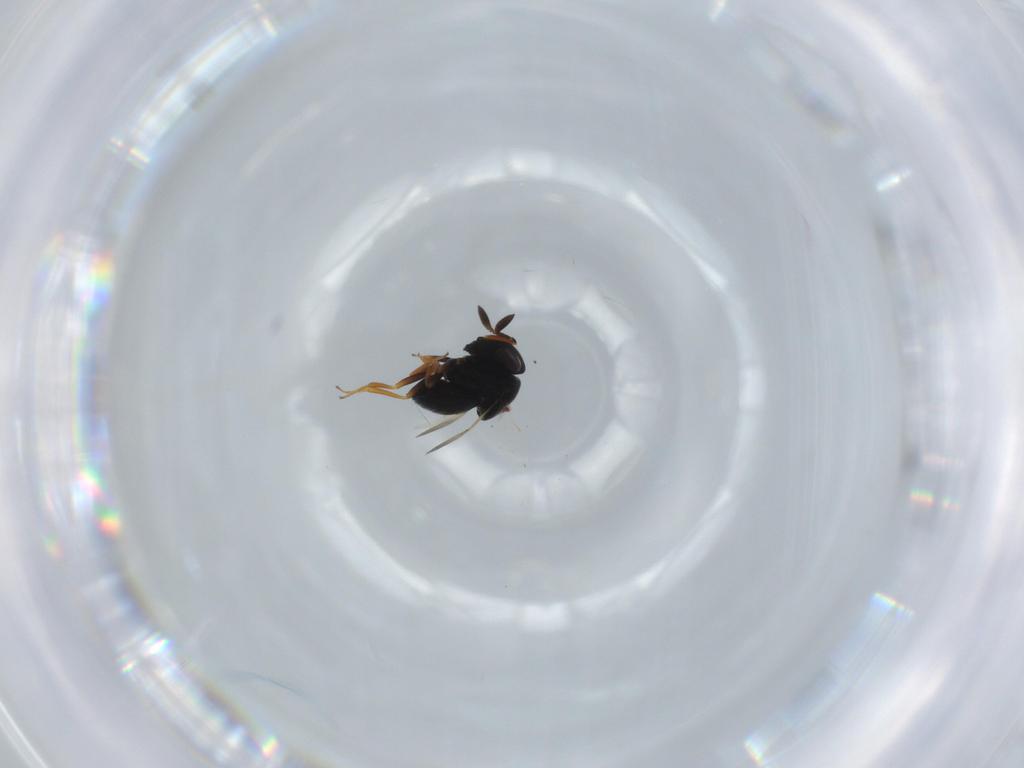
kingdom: Animalia
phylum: Arthropoda
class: Insecta
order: Hymenoptera
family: Scelionidae
